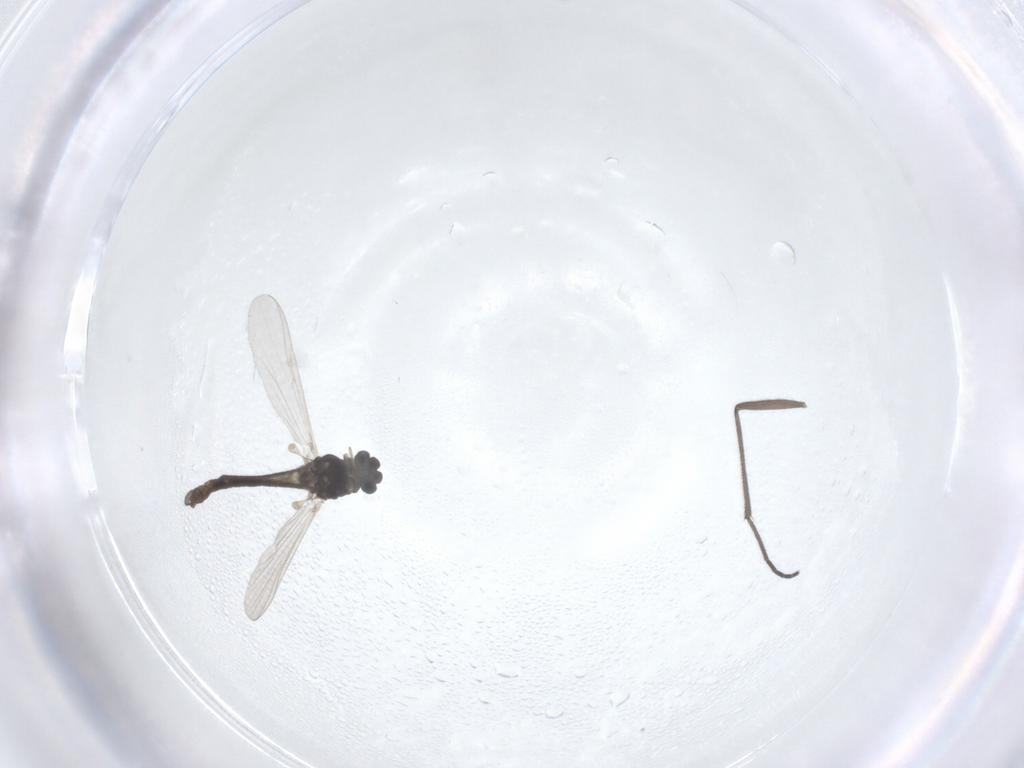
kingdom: Animalia
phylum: Arthropoda
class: Insecta
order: Diptera
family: Chironomidae
